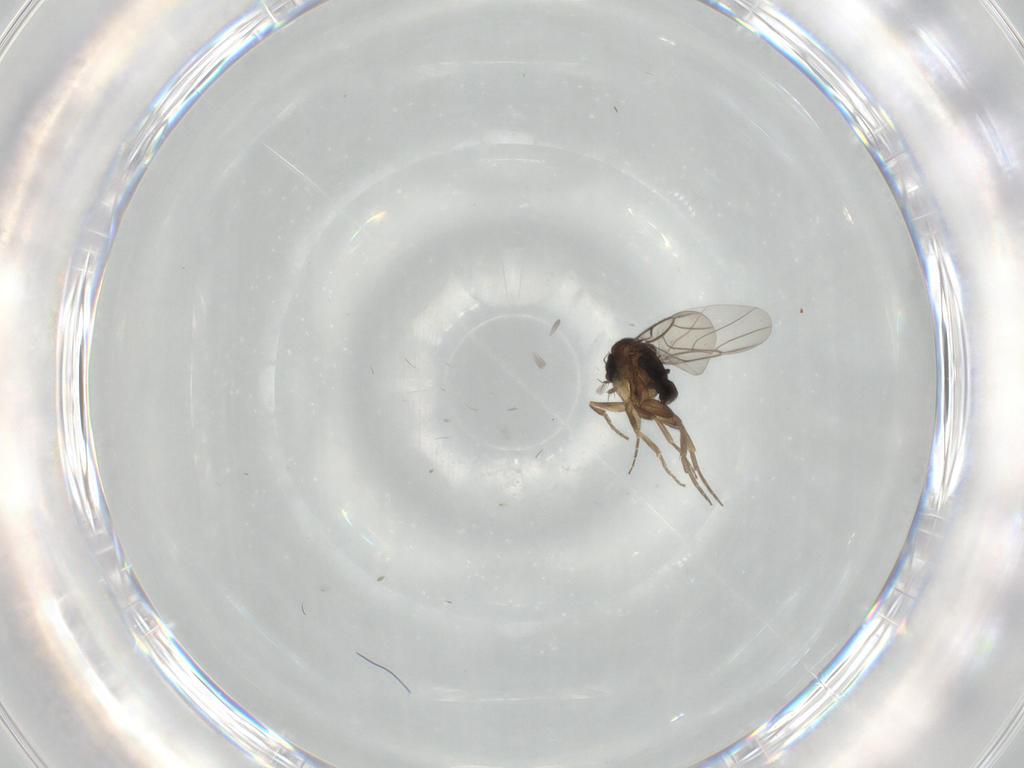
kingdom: Animalia
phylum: Arthropoda
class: Insecta
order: Diptera
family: Phoridae
